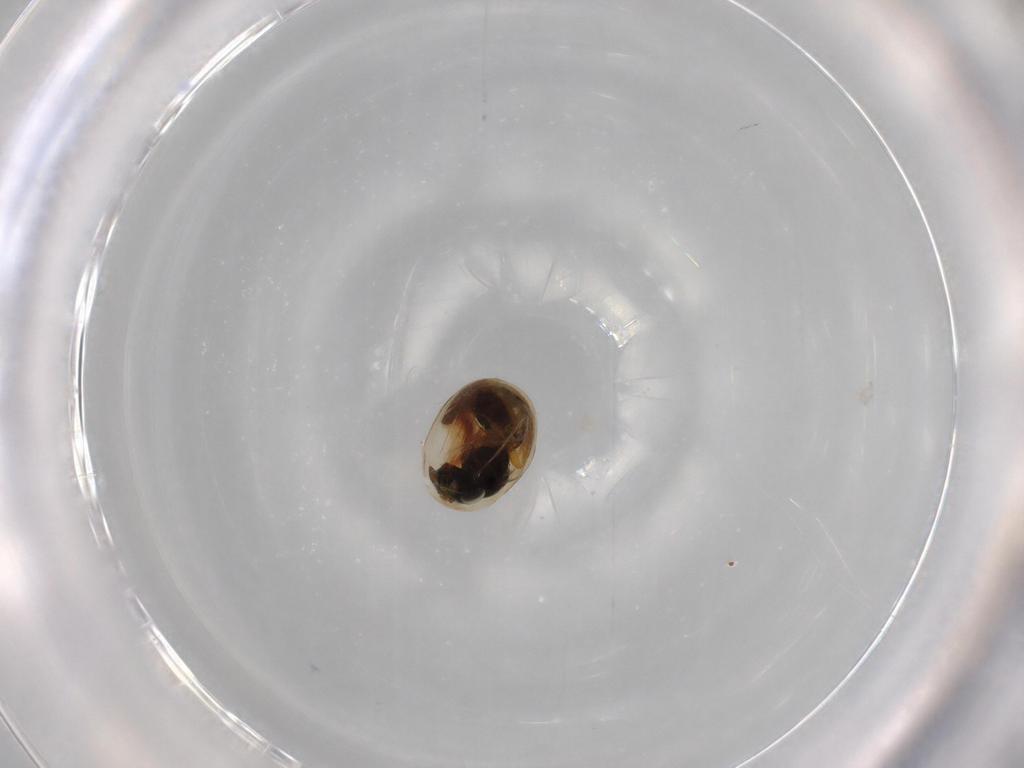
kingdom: Animalia
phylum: Arthropoda
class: Insecta
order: Hymenoptera
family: Scelionidae
